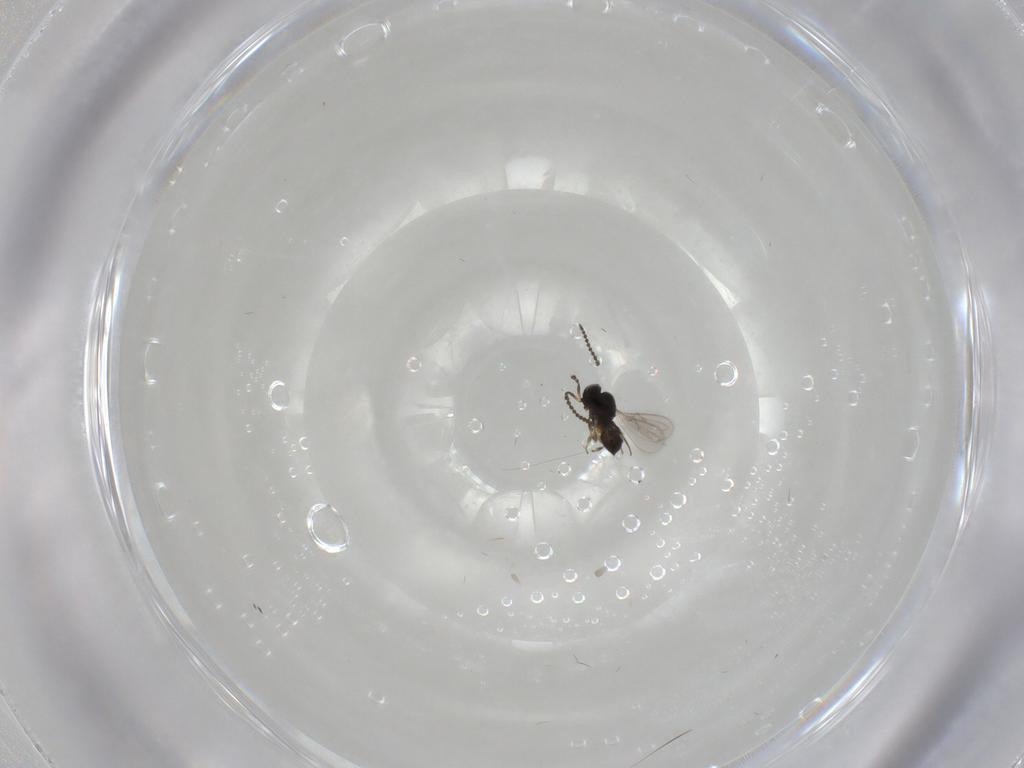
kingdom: Animalia
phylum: Arthropoda
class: Insecta
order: Hymenoptera
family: Scelionidae
